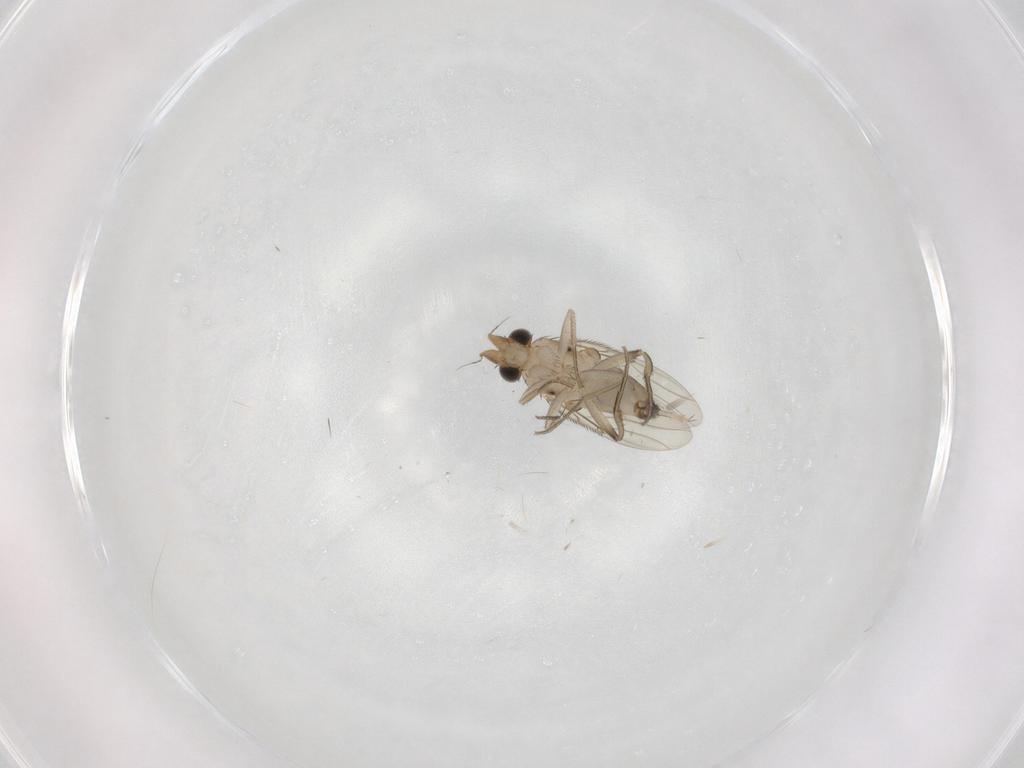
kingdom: Animalia
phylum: Arthropoda
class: Insecta
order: Diptera
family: Phoridae
